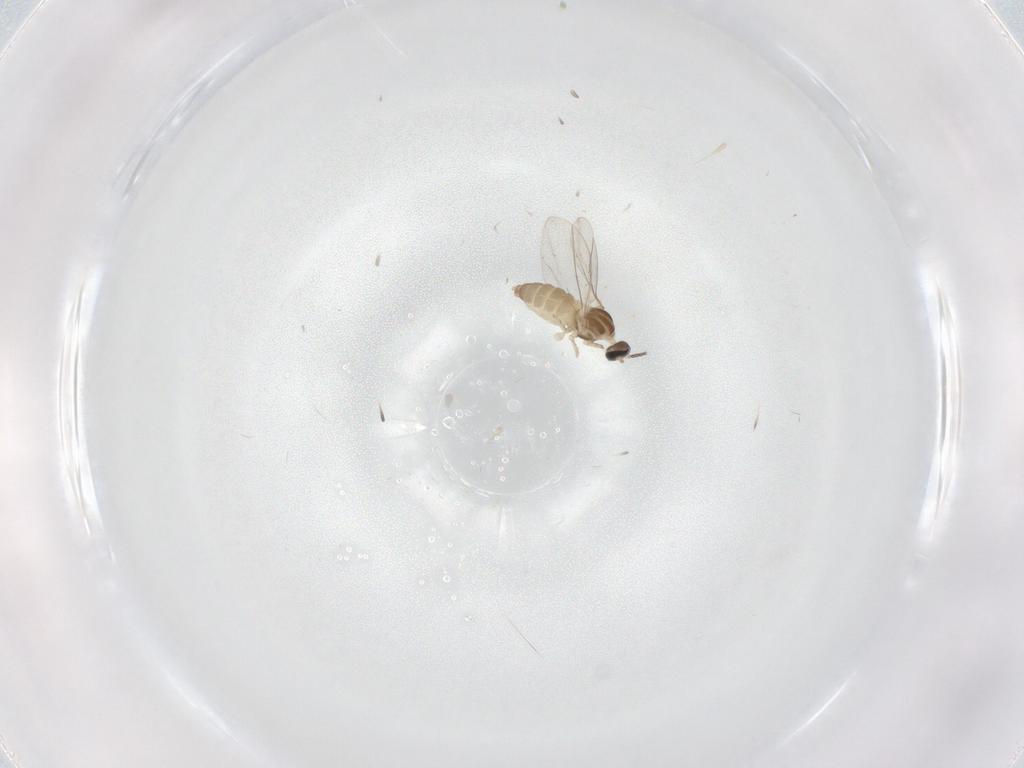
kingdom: Animalia
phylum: Arthropoda
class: Insecta
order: Diptera
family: Cecidomyiidae
